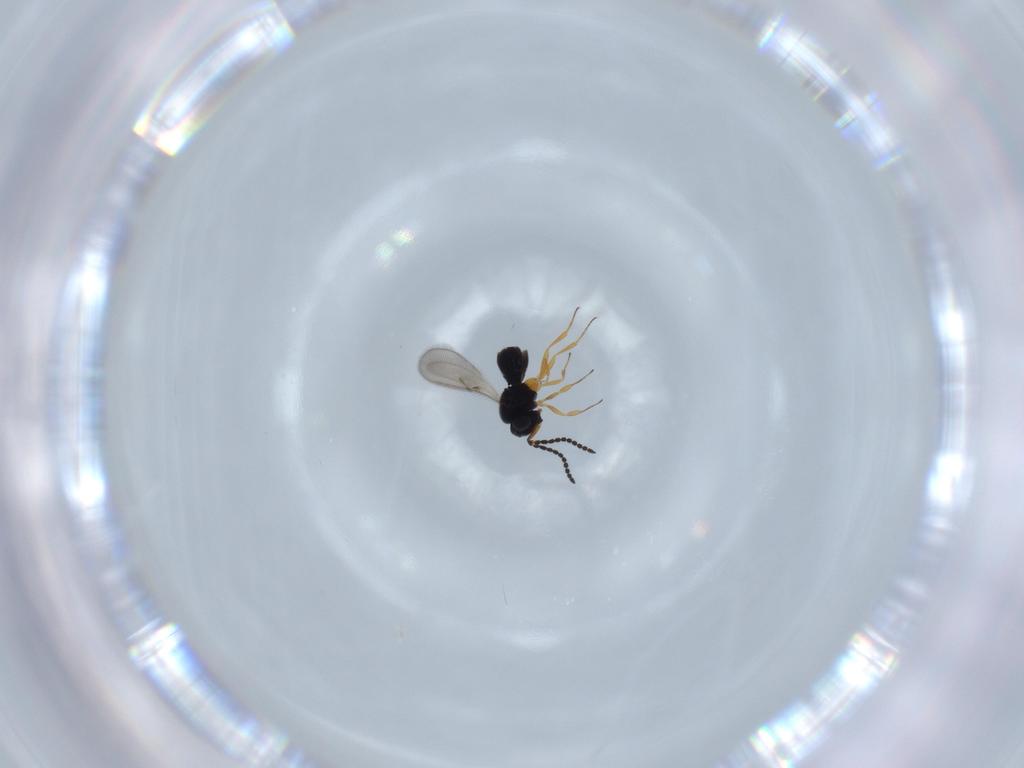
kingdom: Animalia
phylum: Arthropoda
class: Insecta
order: Hymenoptera
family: Scelionidae
